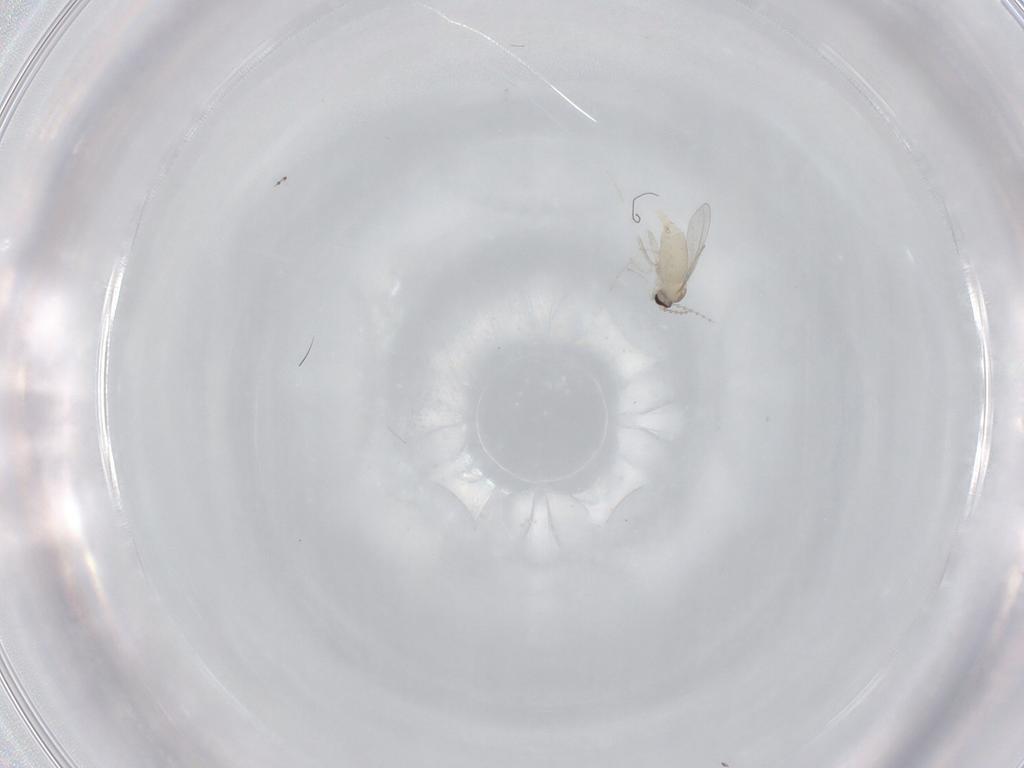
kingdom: Animalia
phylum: Arthropoda
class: Insecta
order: Diptera
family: Cecidomyiidae
